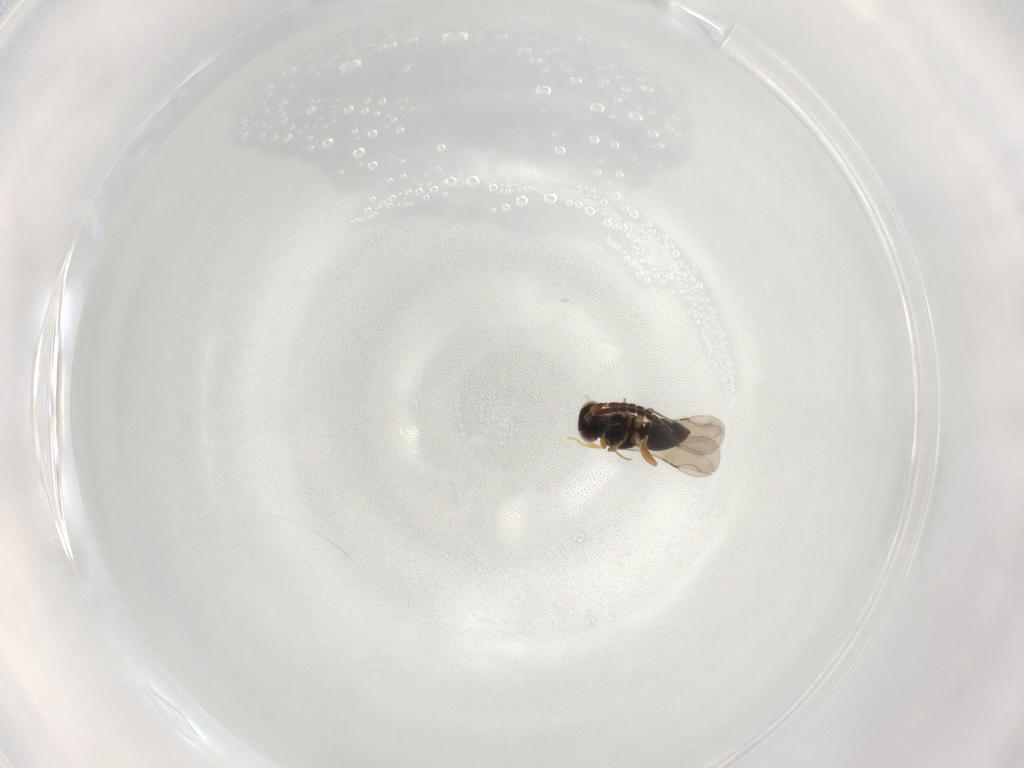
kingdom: Animalia
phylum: Arthropoda
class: Insecta
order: Hymenoptera
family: Ceraphronidae
